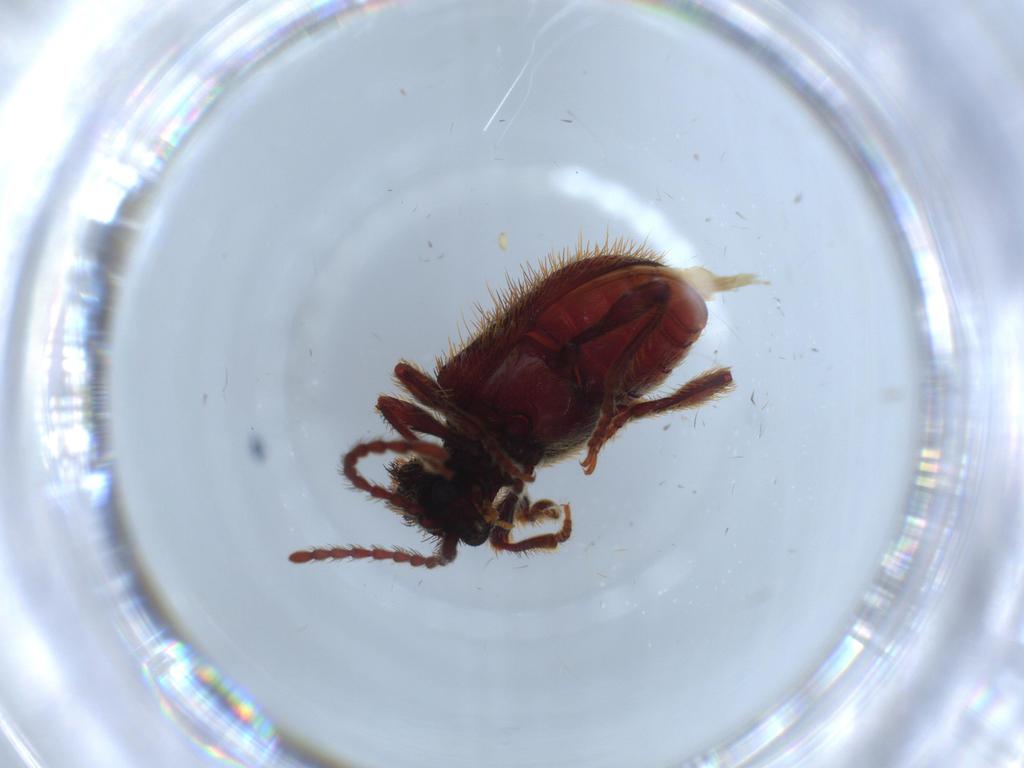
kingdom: Animalia
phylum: Arthropoda
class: Insecta
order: Coleoptera
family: Ptinidae
